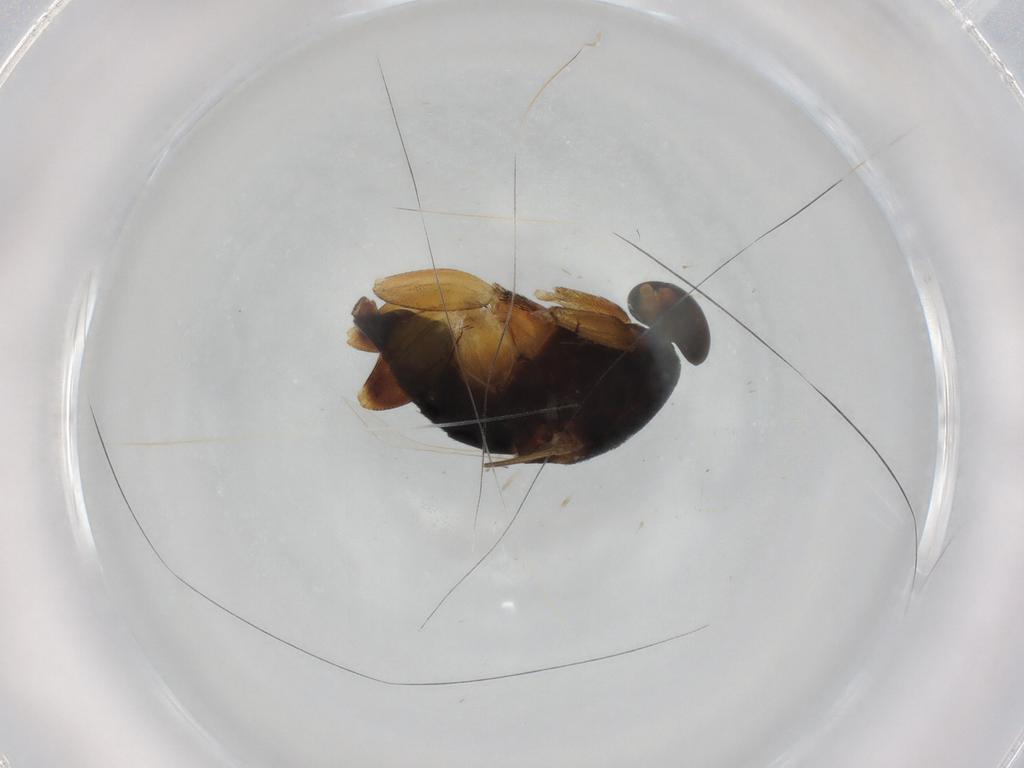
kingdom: Animalia
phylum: Arthropoda
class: Insecta
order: Diptera
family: Phoridae
